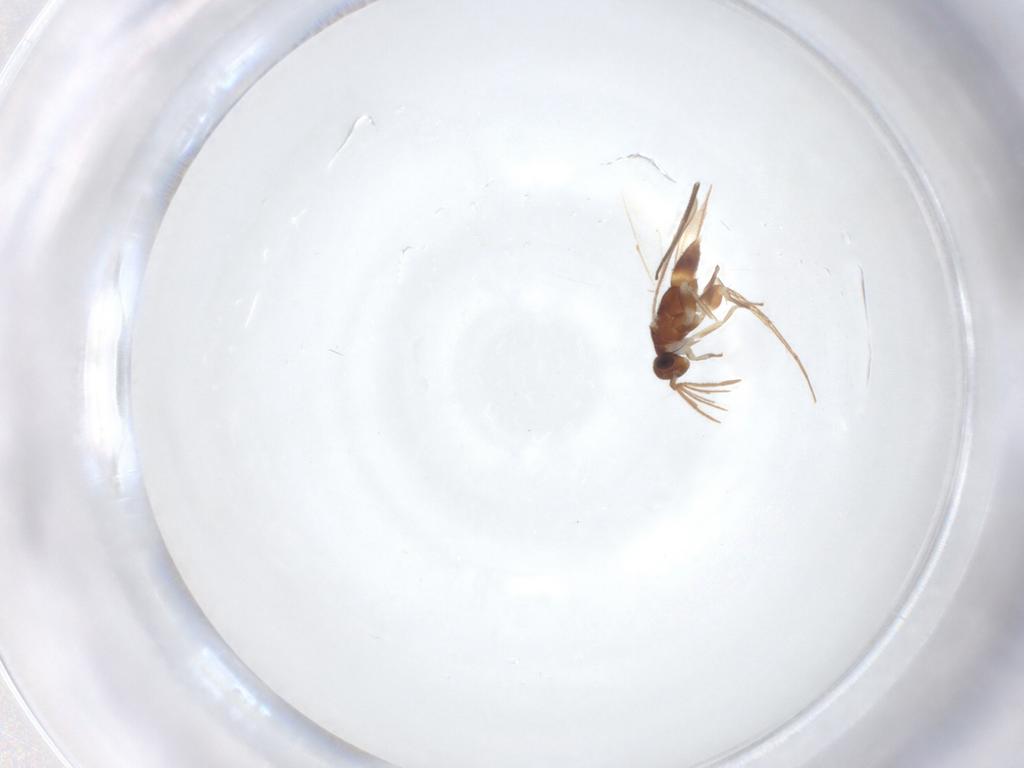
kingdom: Animalia
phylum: Arthropoda
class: Insecta
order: Diptera
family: Phoridae
